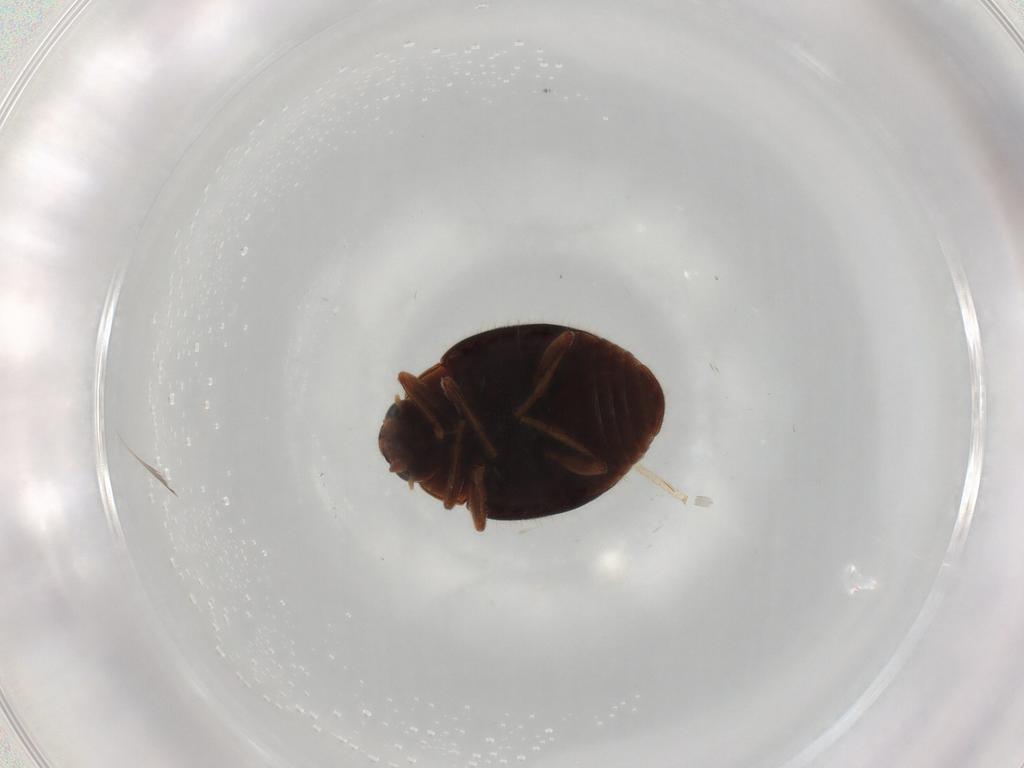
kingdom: Animalia
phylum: Arthropoda
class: Insecta
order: Coleoptera
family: Coccinellidae
